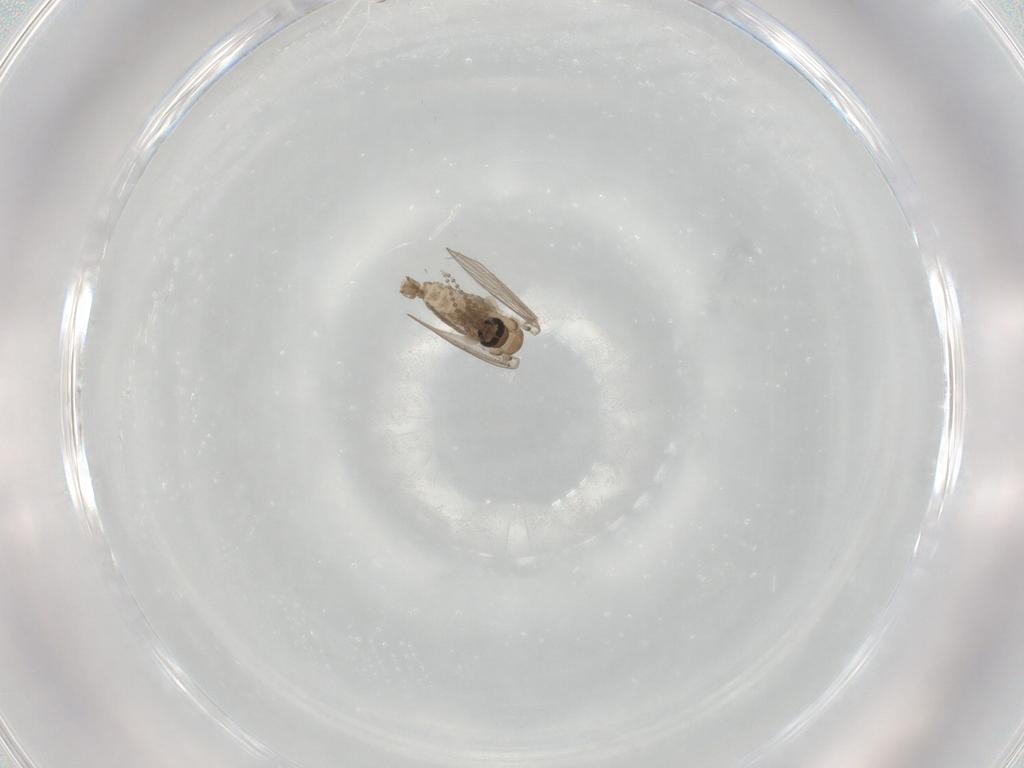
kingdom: Animalia
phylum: Arthropoda
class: Insecta
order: Diptera
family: Psychodidae
